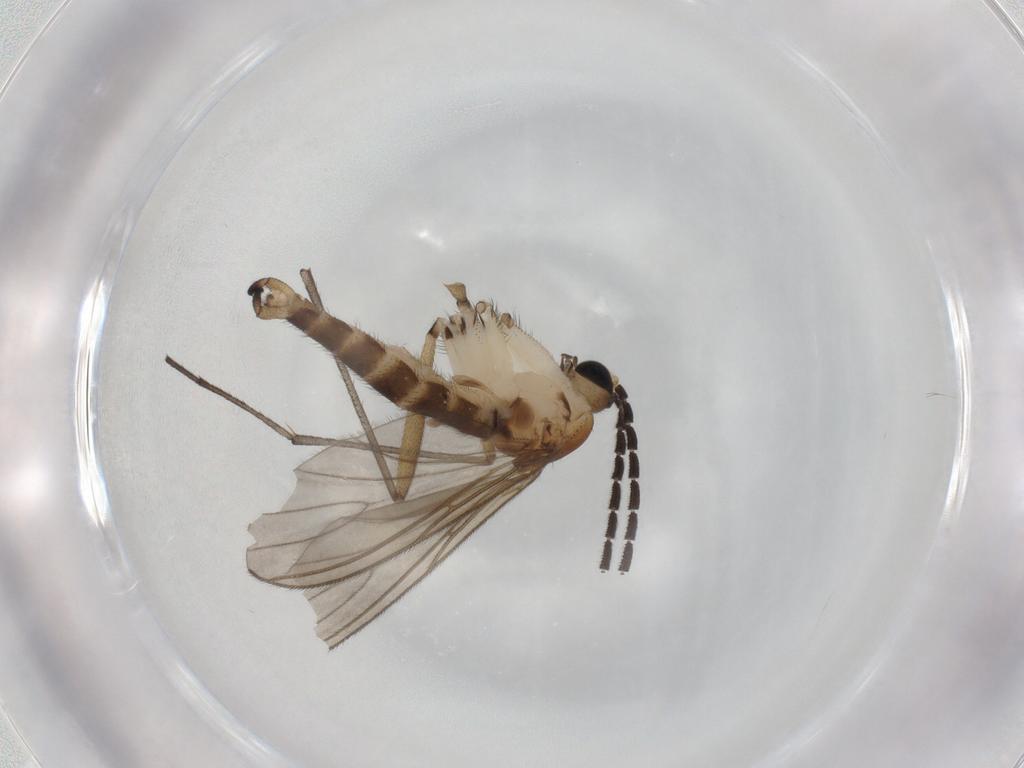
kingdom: Animalia
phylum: Arthropoda
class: Insecta
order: Diptera
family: Sciaridae
